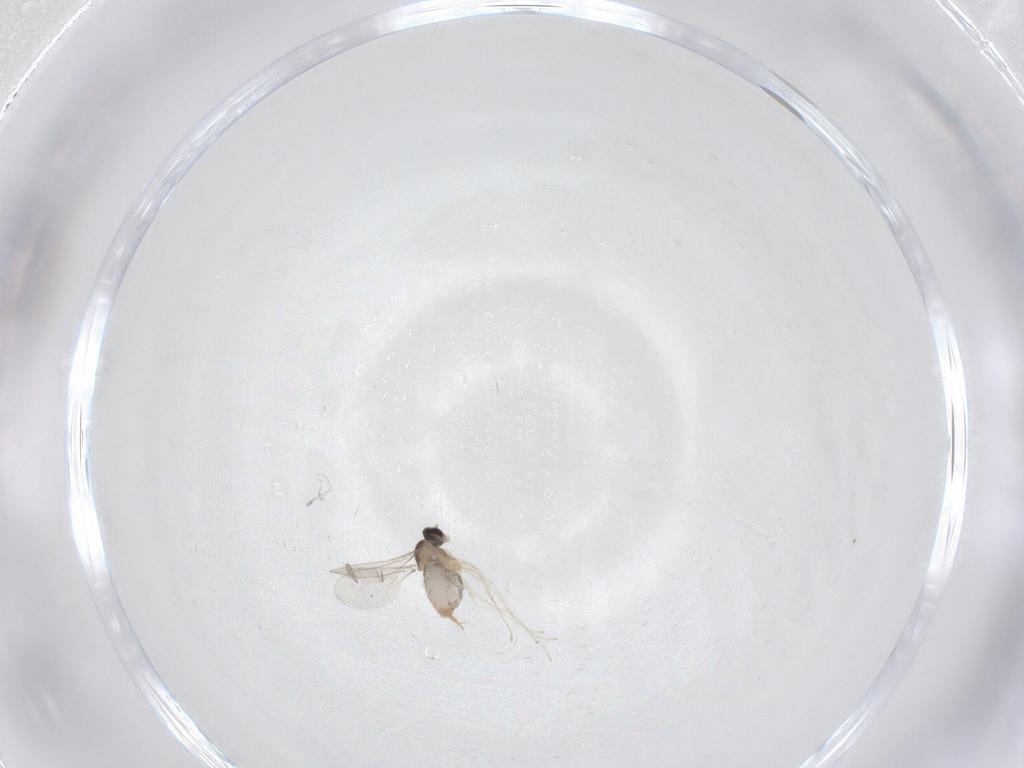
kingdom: Animalia
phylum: Arthropoda
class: Insecta
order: Diptera
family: Cecidomyiidae
